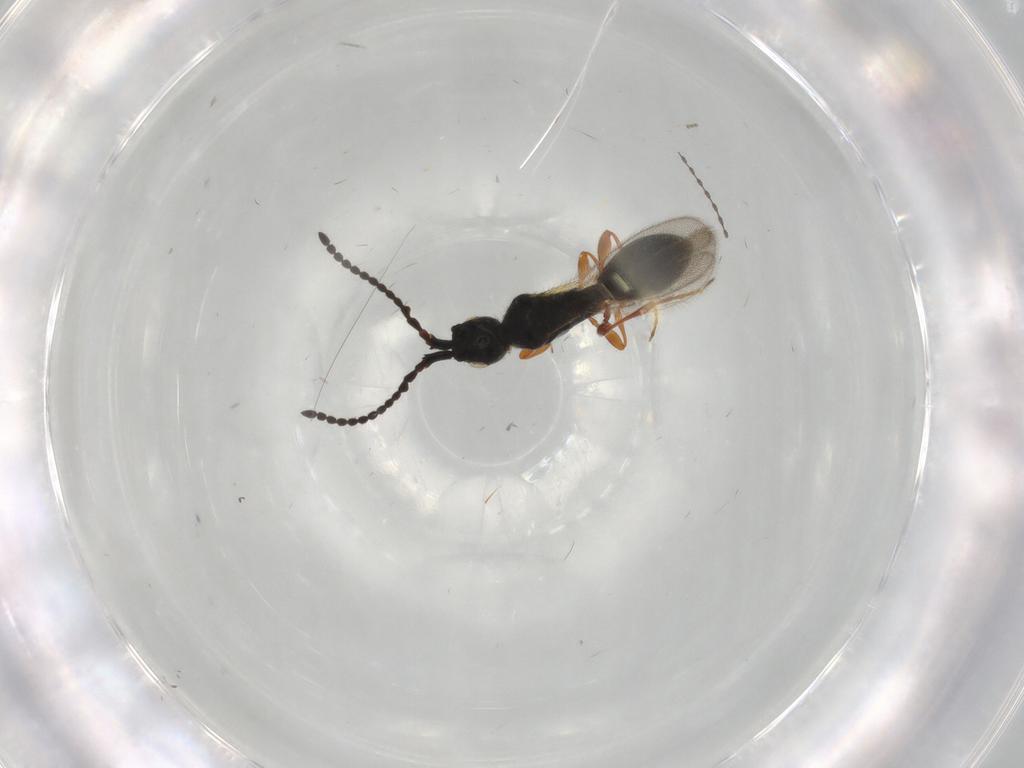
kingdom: Animalia
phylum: Arthropoda
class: Insecta
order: Hymenoptera
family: Diapriidae
